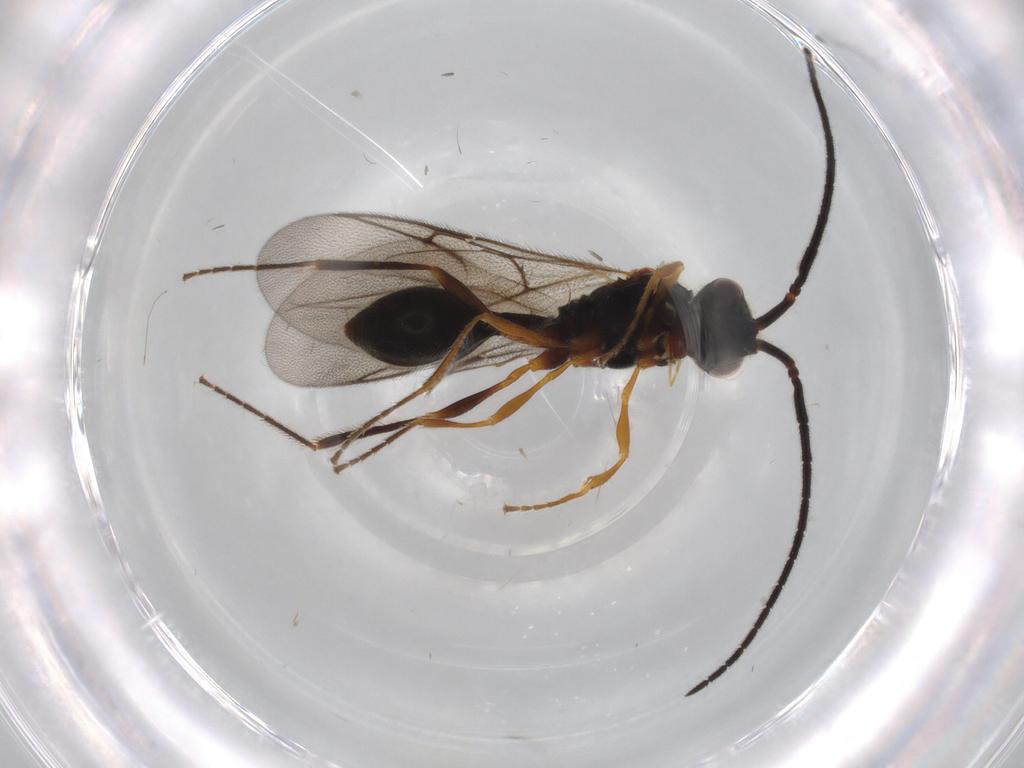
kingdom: Animalia
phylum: Arthropoda
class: Insecta
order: Hymenoptera
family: Diapriidae
